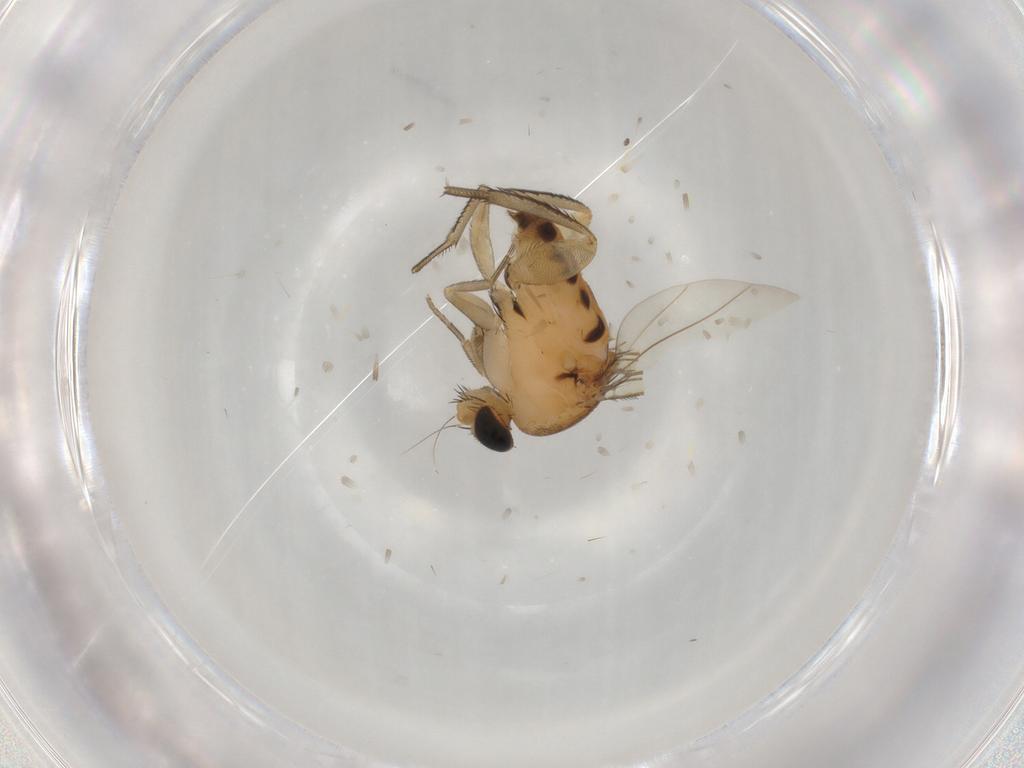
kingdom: Animalia
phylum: Arthropoda
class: Insecta
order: Diptera
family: Phoridae
